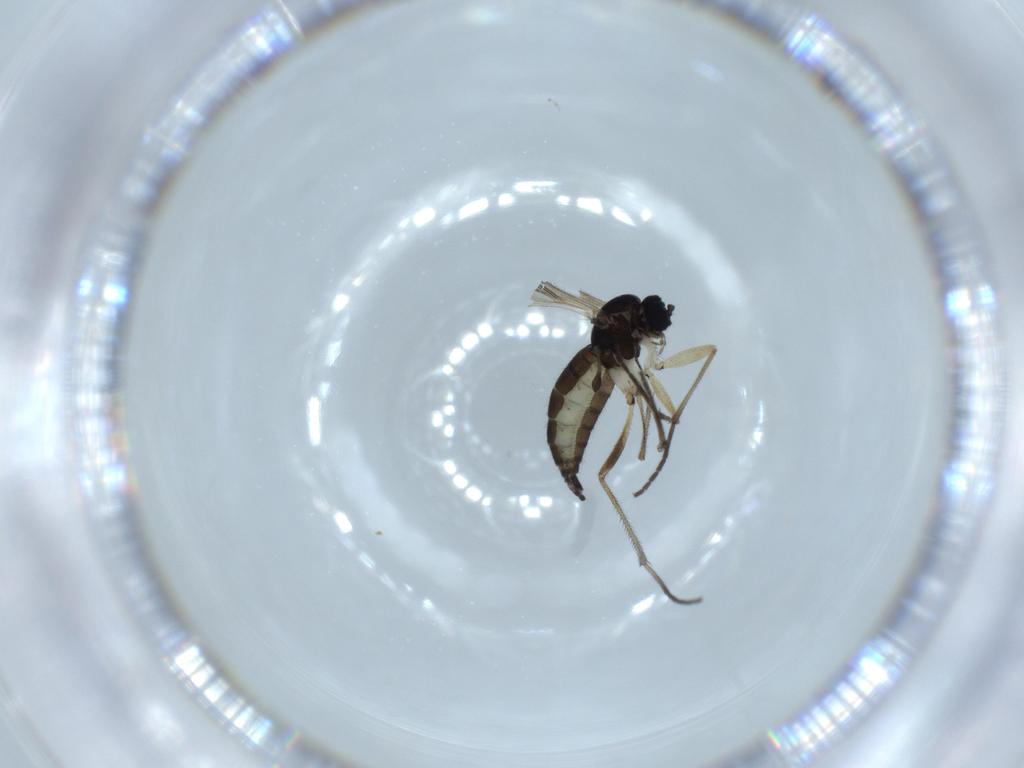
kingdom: Animalia
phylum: Arthropoda
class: Insecta
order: Diptera
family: Sciaridae
